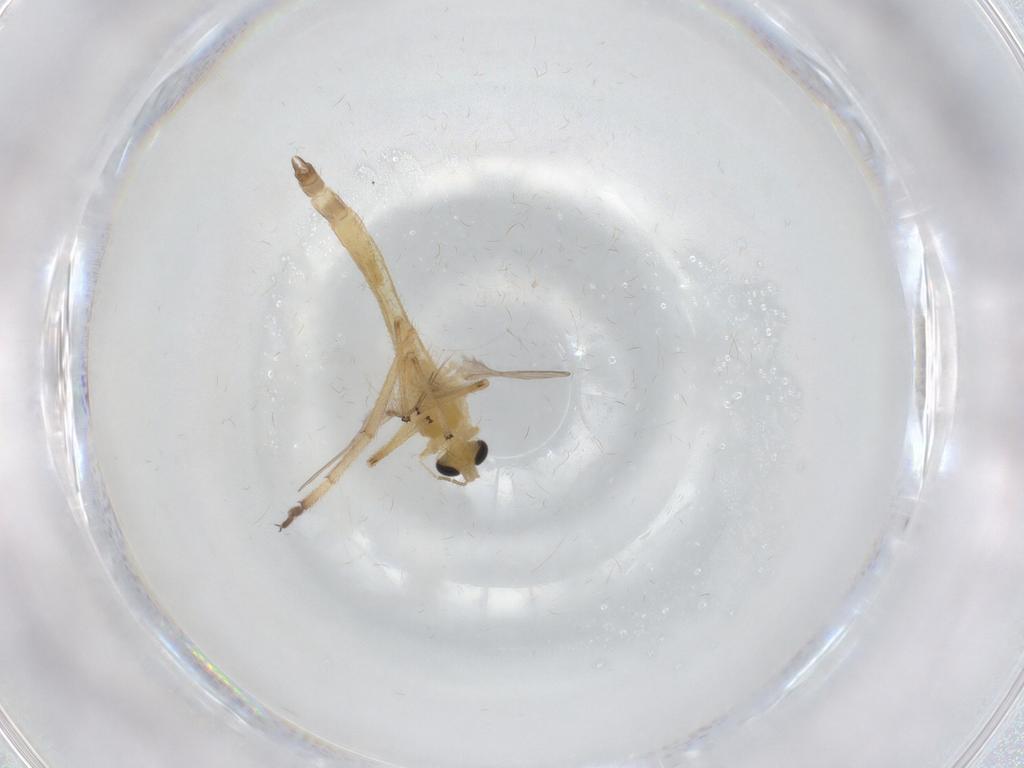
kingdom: Animalia
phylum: Arthropoda
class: Insecta
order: Diptera
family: Chironomidae
